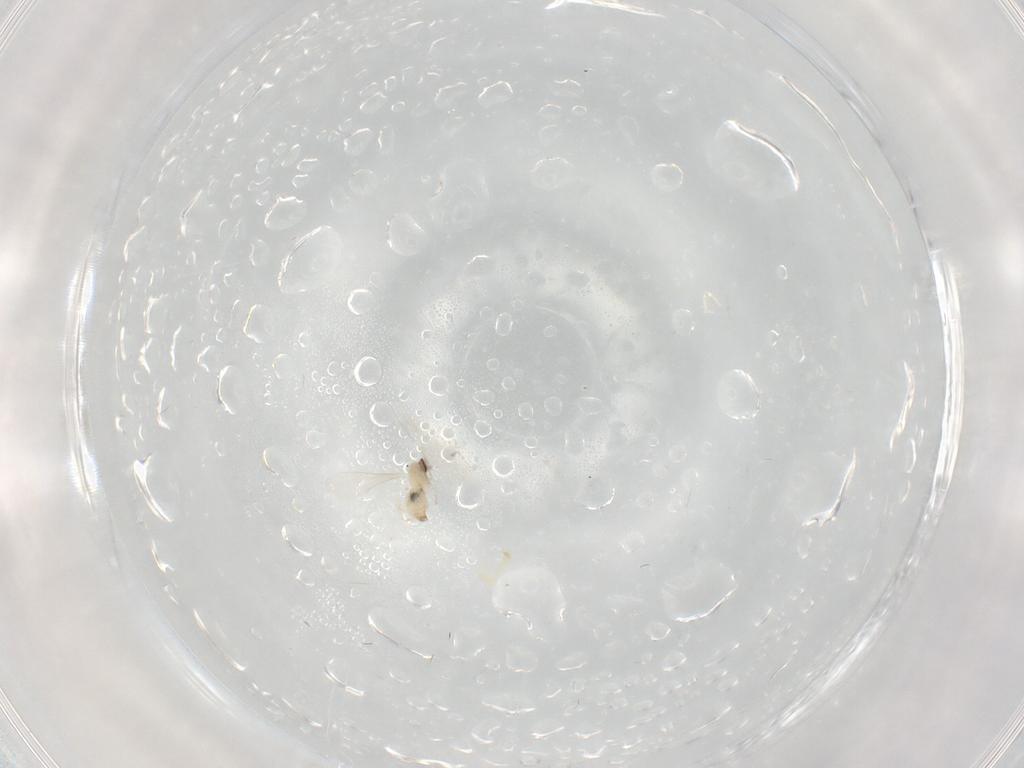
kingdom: Animalia
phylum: Arthropoda
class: Insecta
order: Diptera
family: Cecidomyiidae
